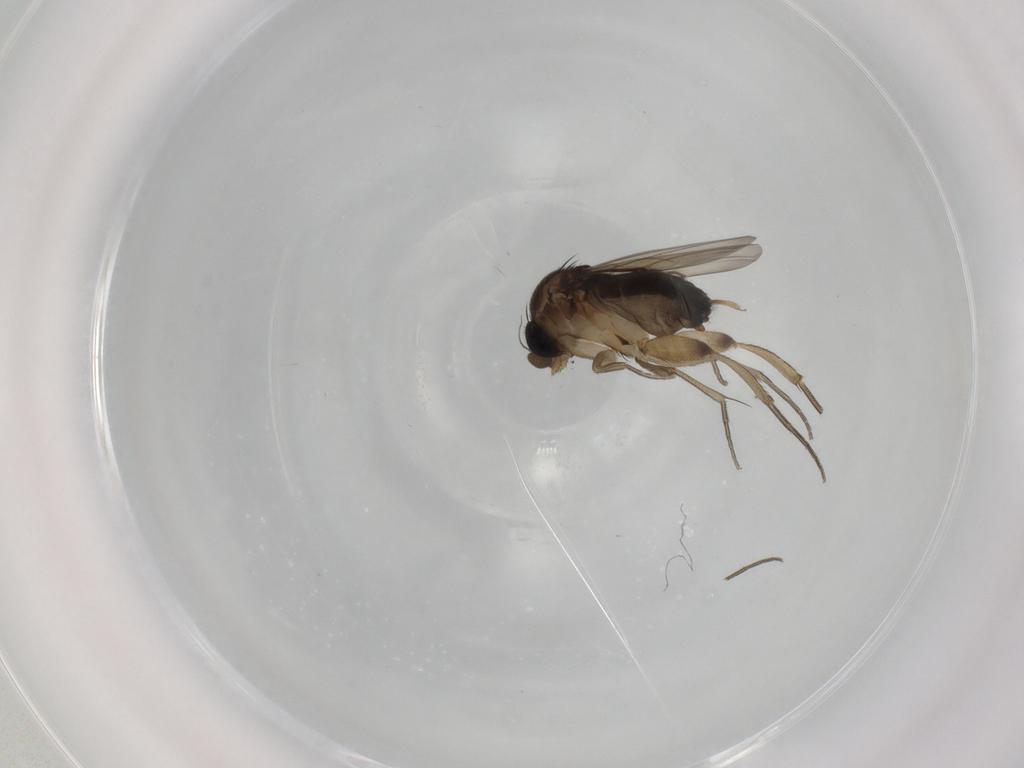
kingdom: Animalia
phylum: Arthropoda
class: Insecta
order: Diptera
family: Phoridae
